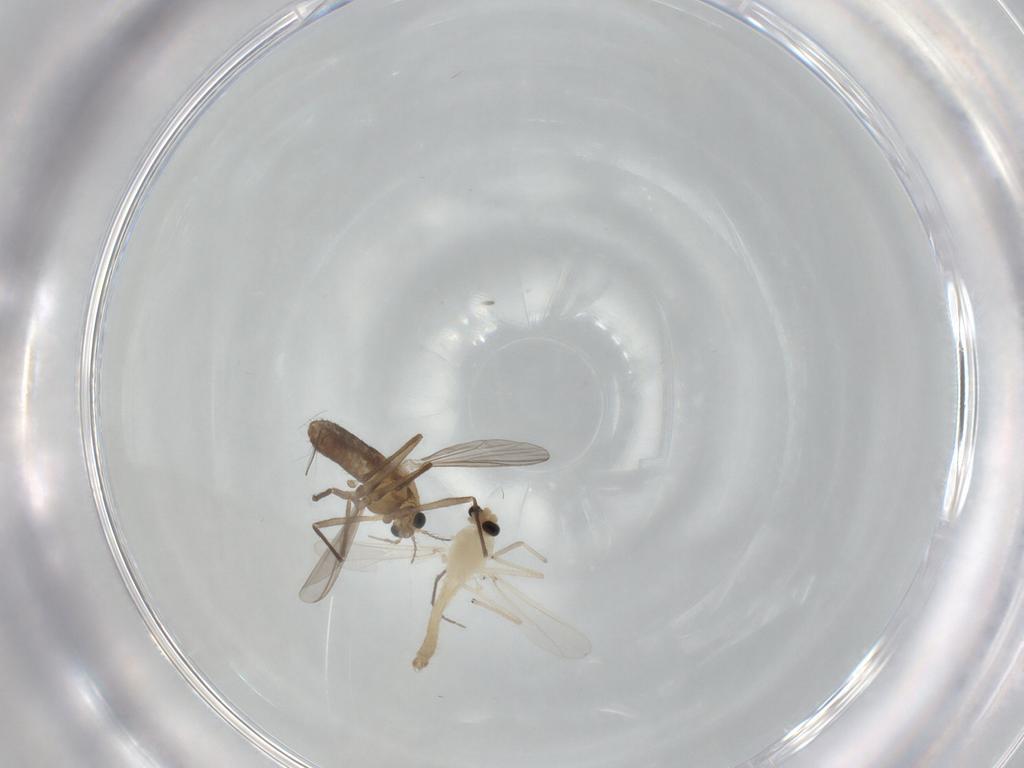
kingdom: Animalia
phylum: Arthropoda
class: Insecta
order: Diptera
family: Chironomidae
